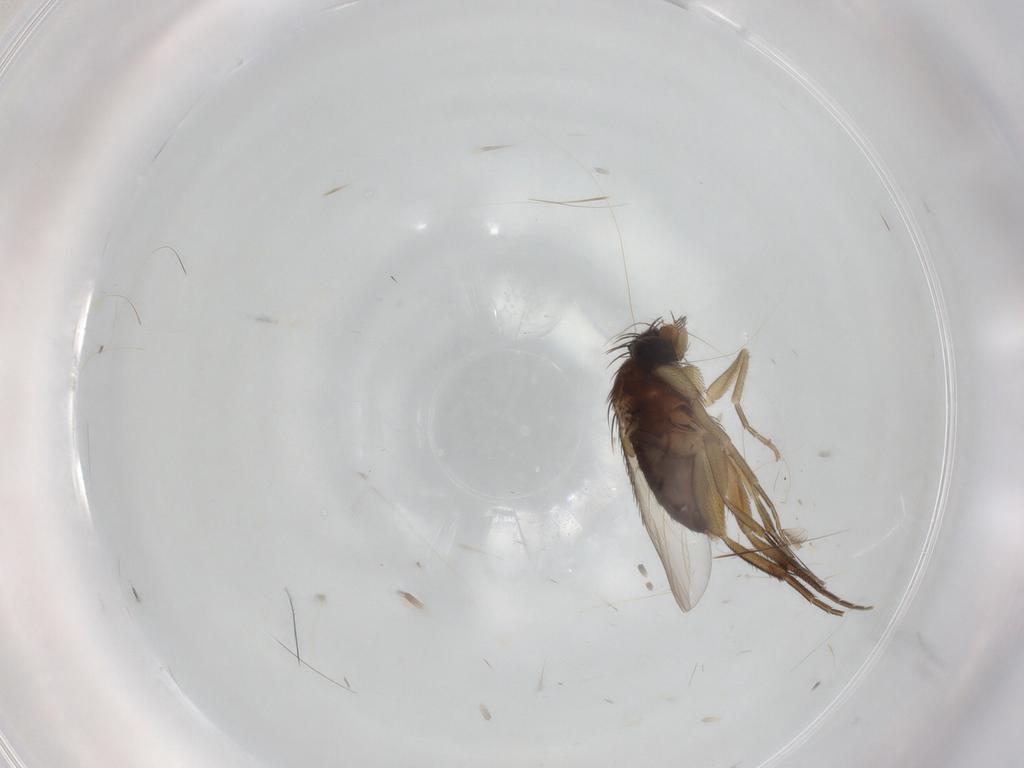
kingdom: Animalia
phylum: Arthropoda
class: Insecta
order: Diptera
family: Phoridae
